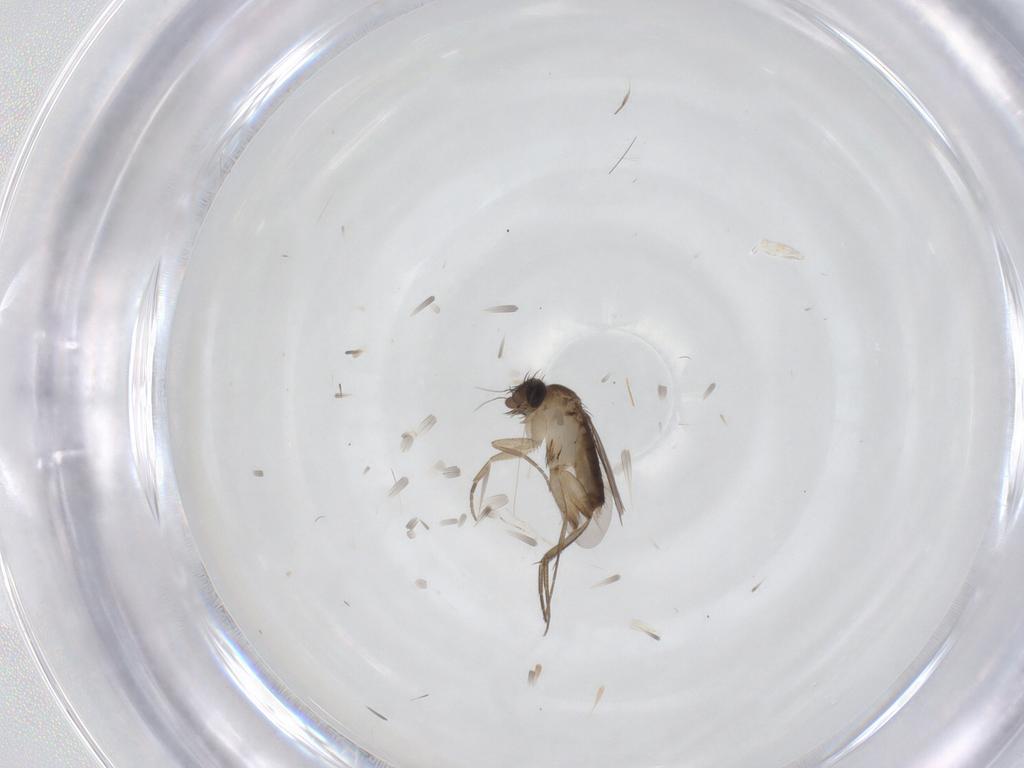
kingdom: Animalia
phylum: Arthropoda
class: Insecta
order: Diptera
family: Phoridae
